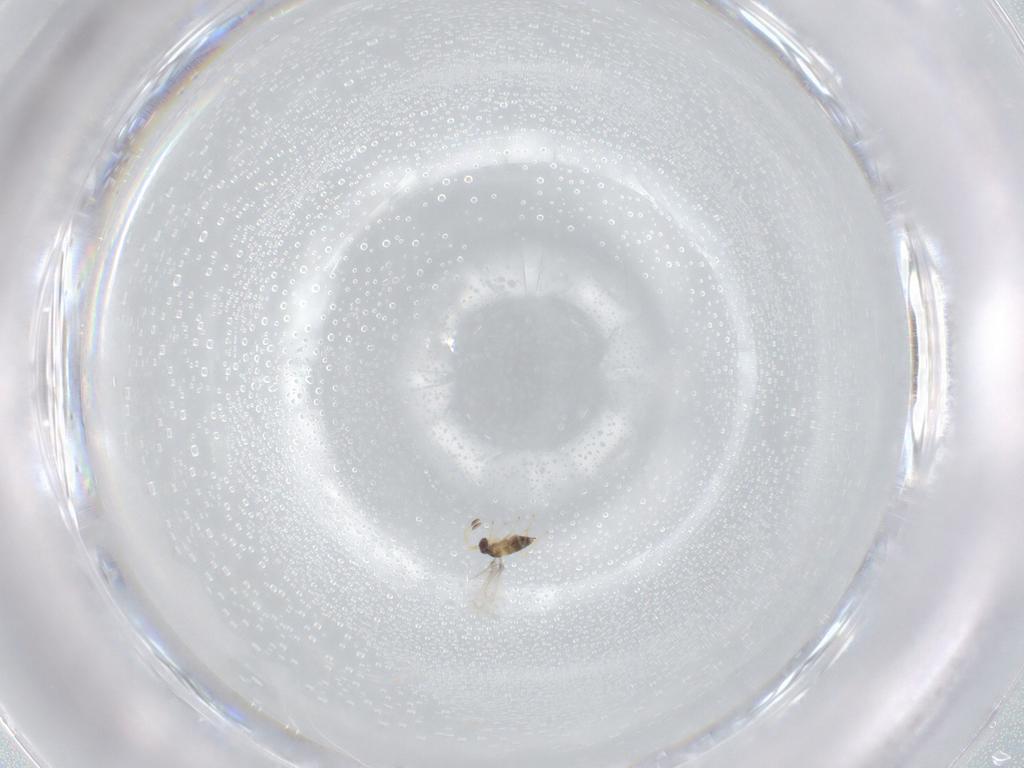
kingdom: Animalia
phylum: Arthropoda
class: Insecta
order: Hymenoptera
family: Mymaridae
